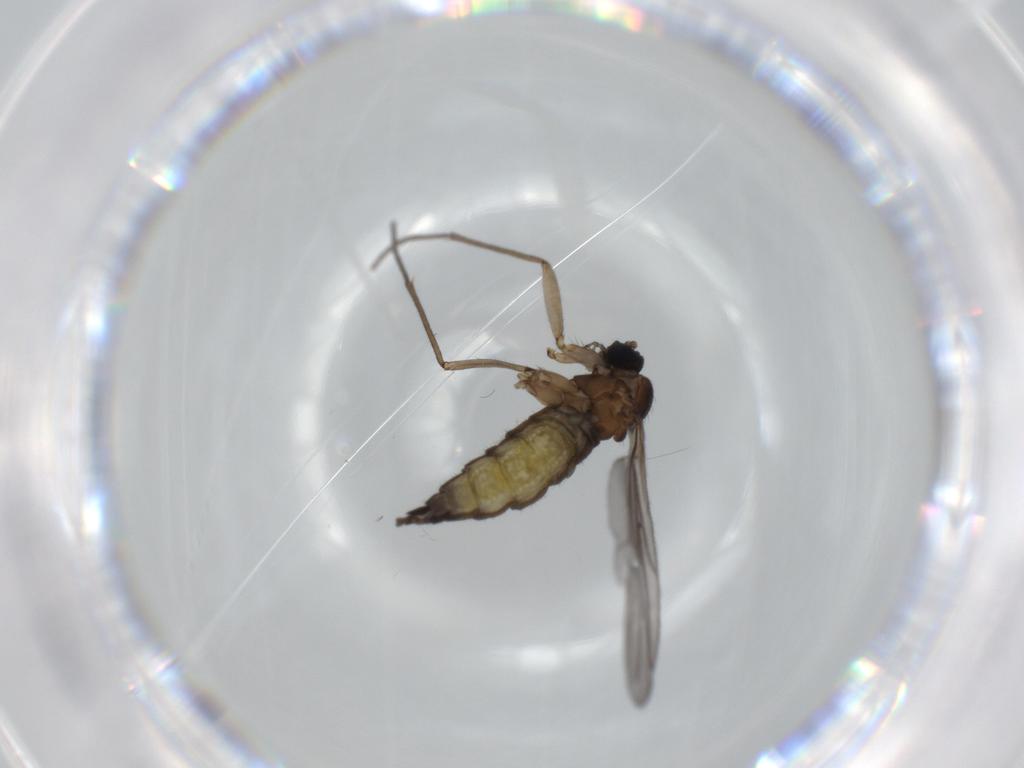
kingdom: Animalia
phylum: Arthropoda
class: Insecta
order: Diptera
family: Sciaridae
